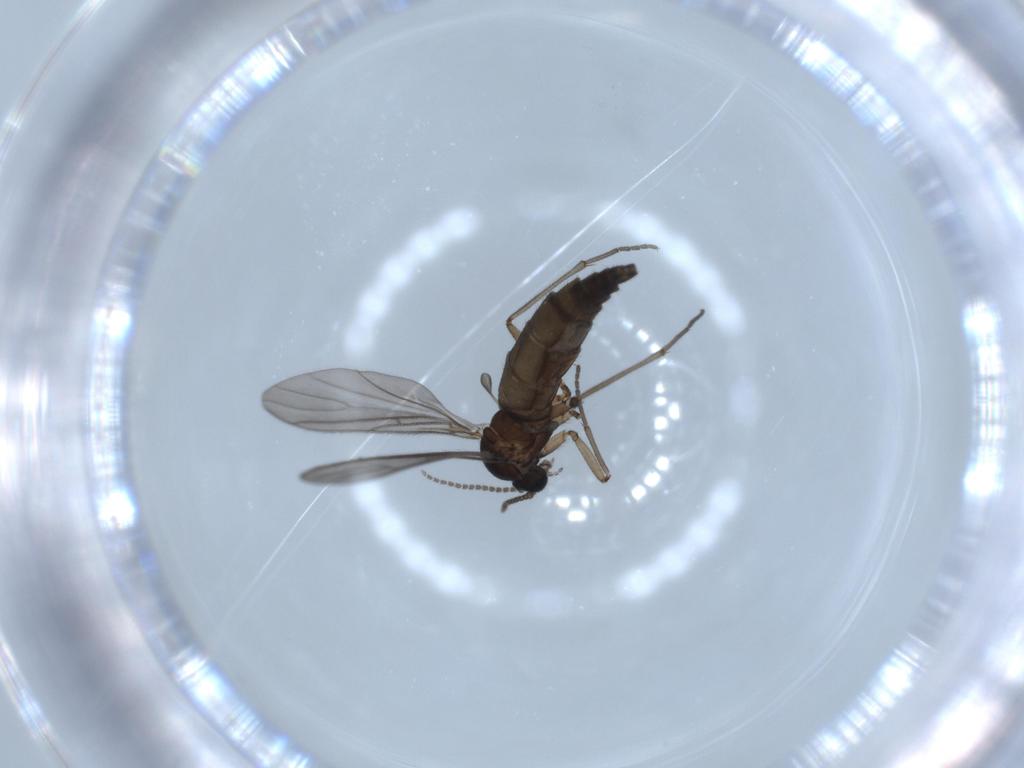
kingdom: Animalia
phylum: Arthropoda
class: Insecta
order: Diptera
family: Sciaridae
